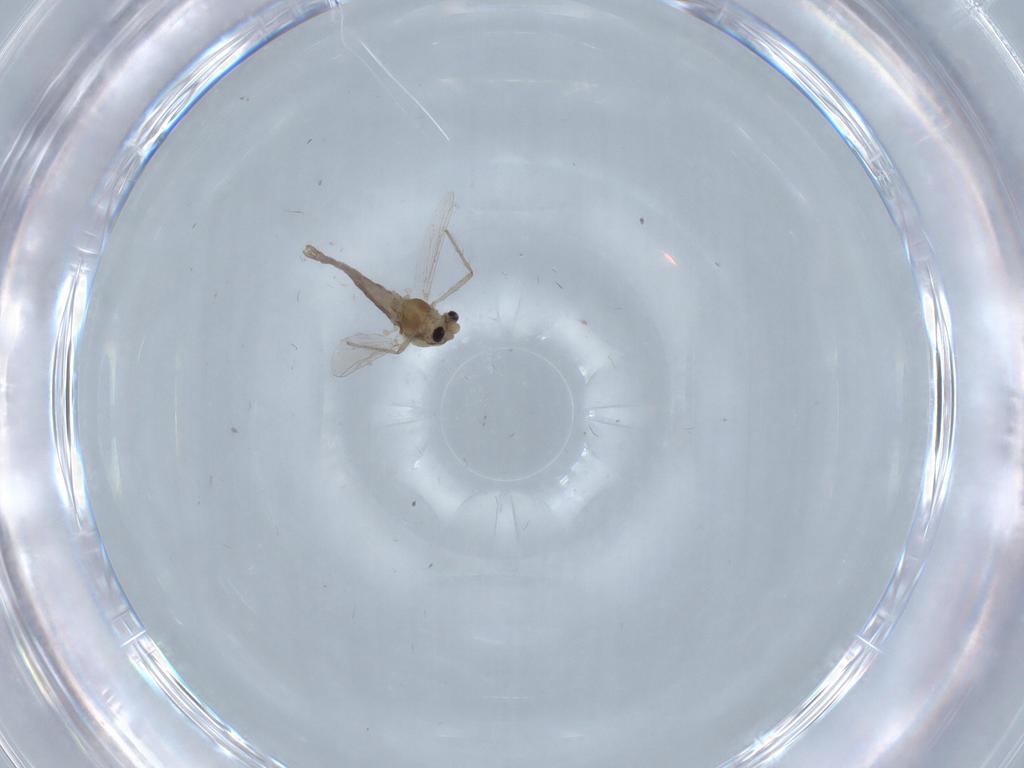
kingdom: Animalia
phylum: Arthropoda
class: Insecta
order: Diptera
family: Chironomidae
